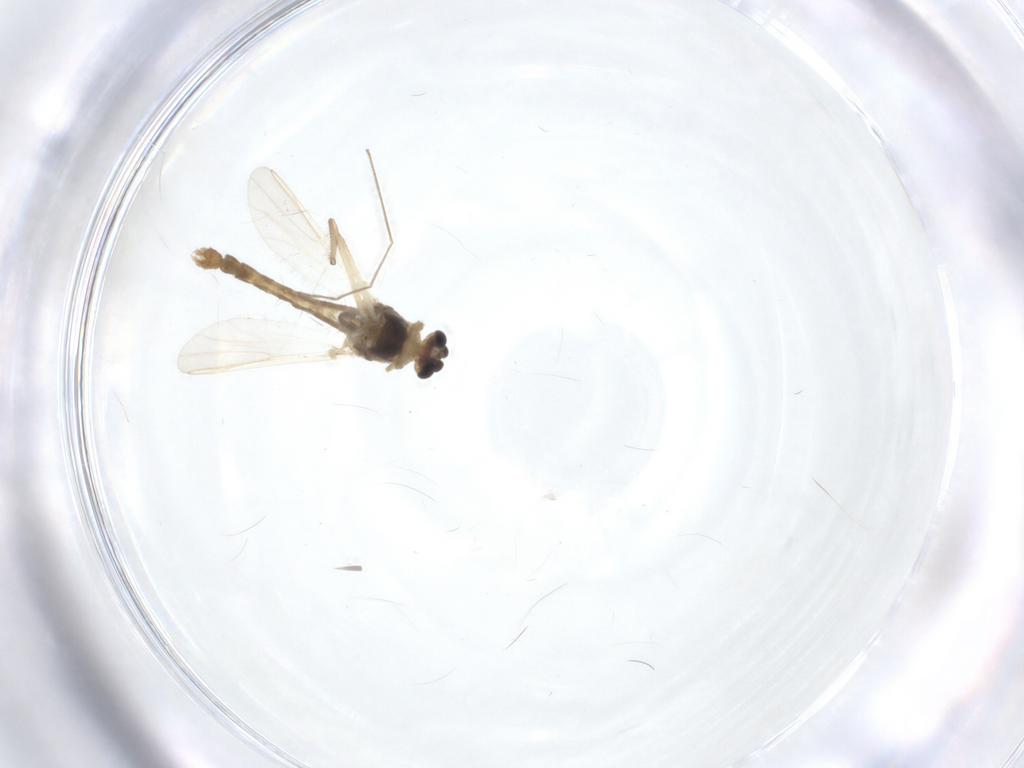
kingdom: Animalia
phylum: Arthropoda
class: Insecta
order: Diptera
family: Chironomidae
